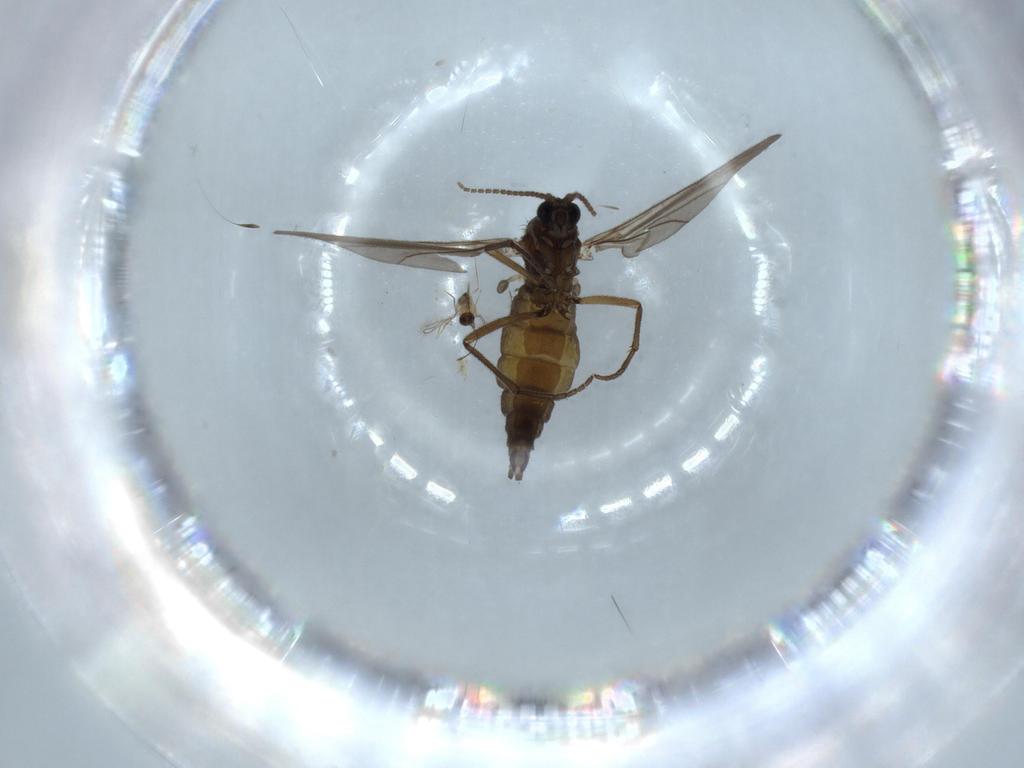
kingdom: Animalia
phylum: Arthropoda
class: Insecta
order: Diptera
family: Sciaridae
